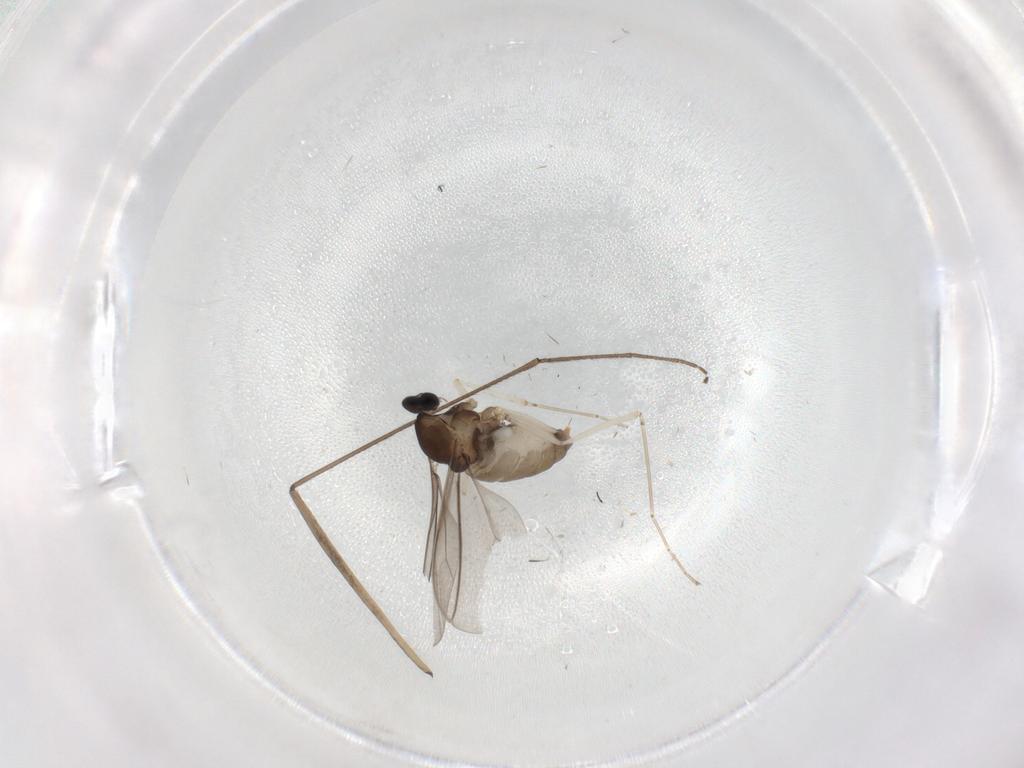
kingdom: Animalia
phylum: Arthropoda
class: Insecta
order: Diptera
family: Cecidomyiidae
